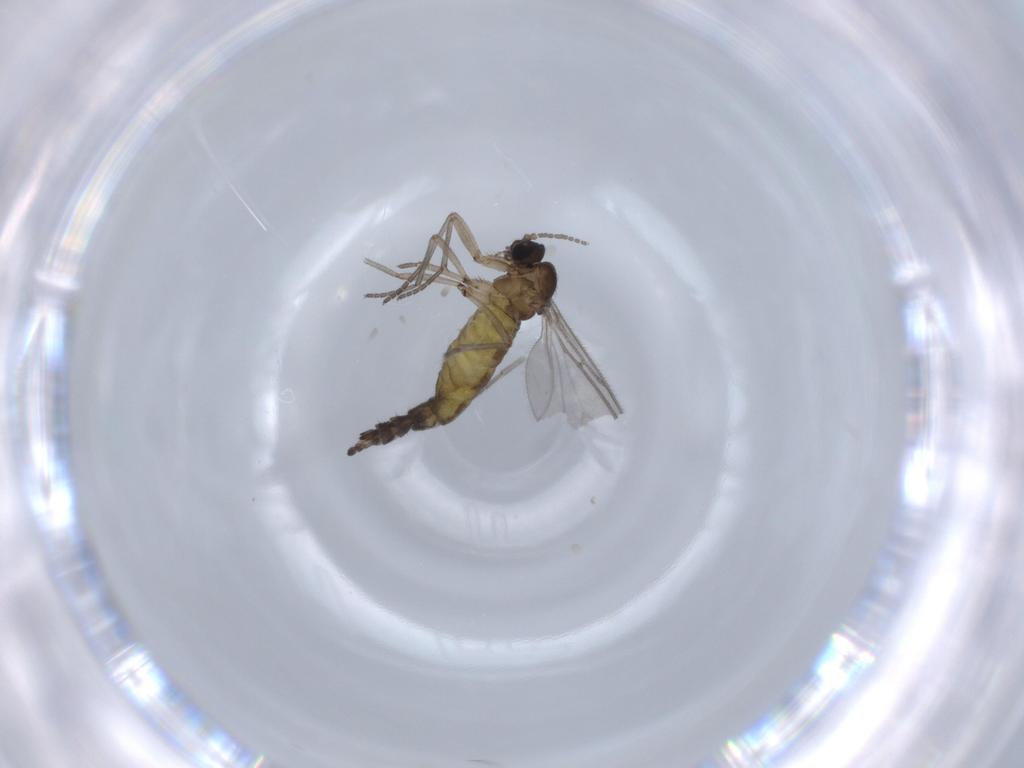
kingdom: Animalia
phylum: Arthropoda
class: Insecta
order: Diptera
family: Sciaridae
